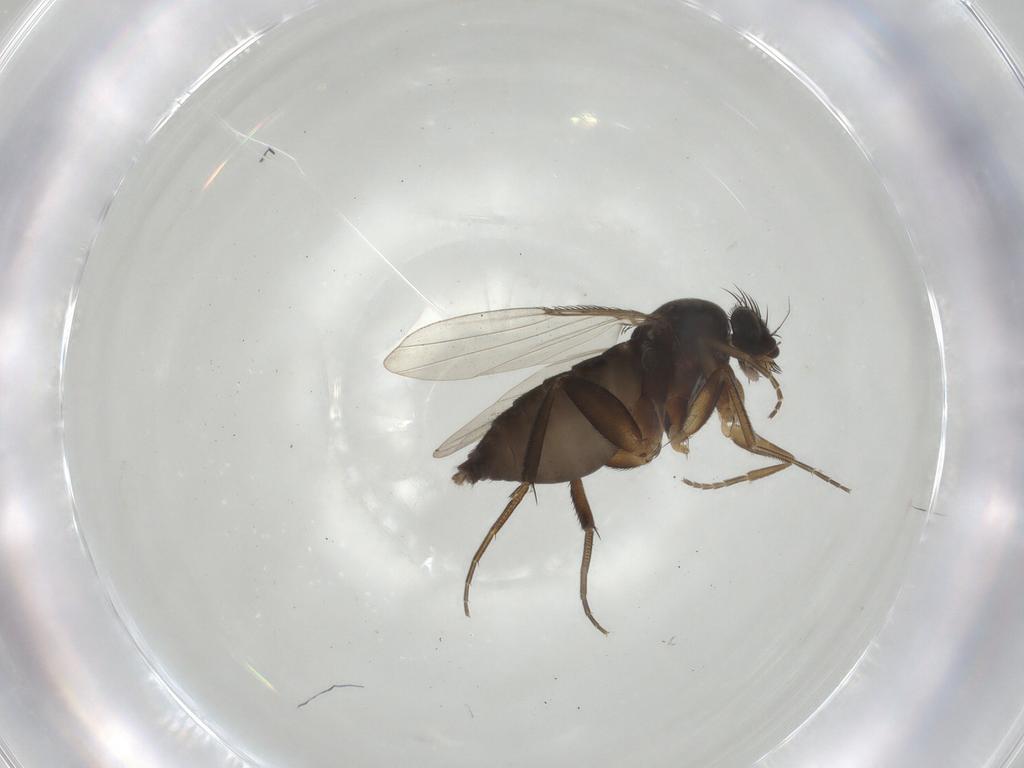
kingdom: Animalia
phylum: Arthropoda
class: Insecta
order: Diptera
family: Phoridae
